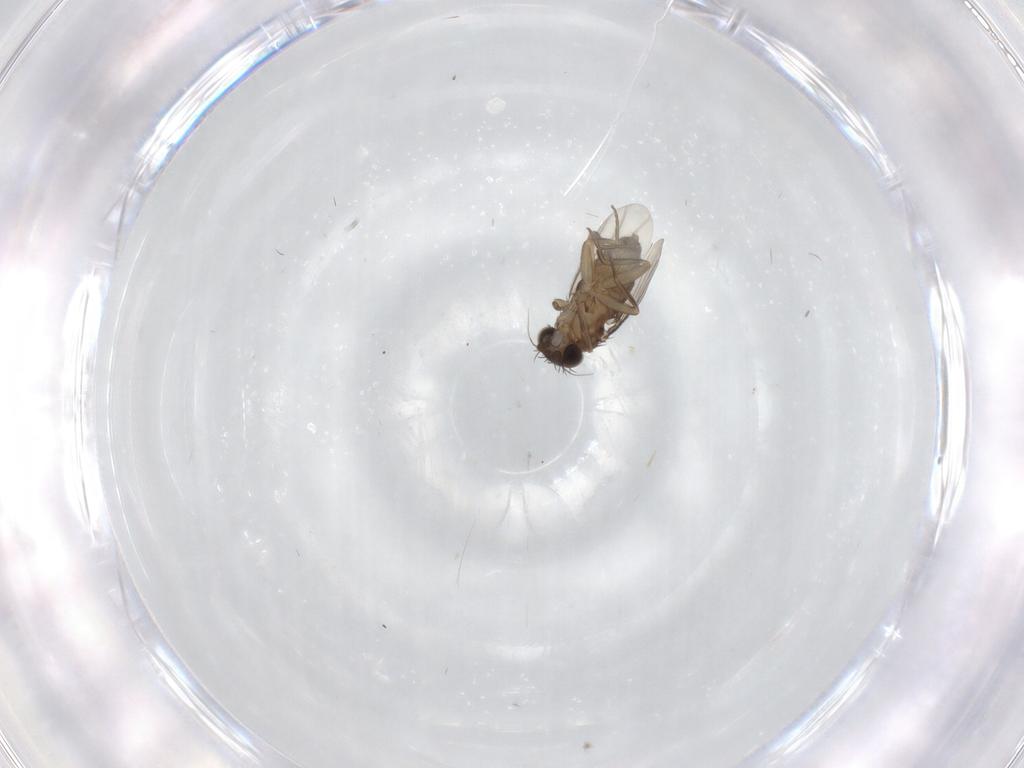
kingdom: Animalia
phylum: Arthropoda
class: Insecta
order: Diptera
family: Phoridae
